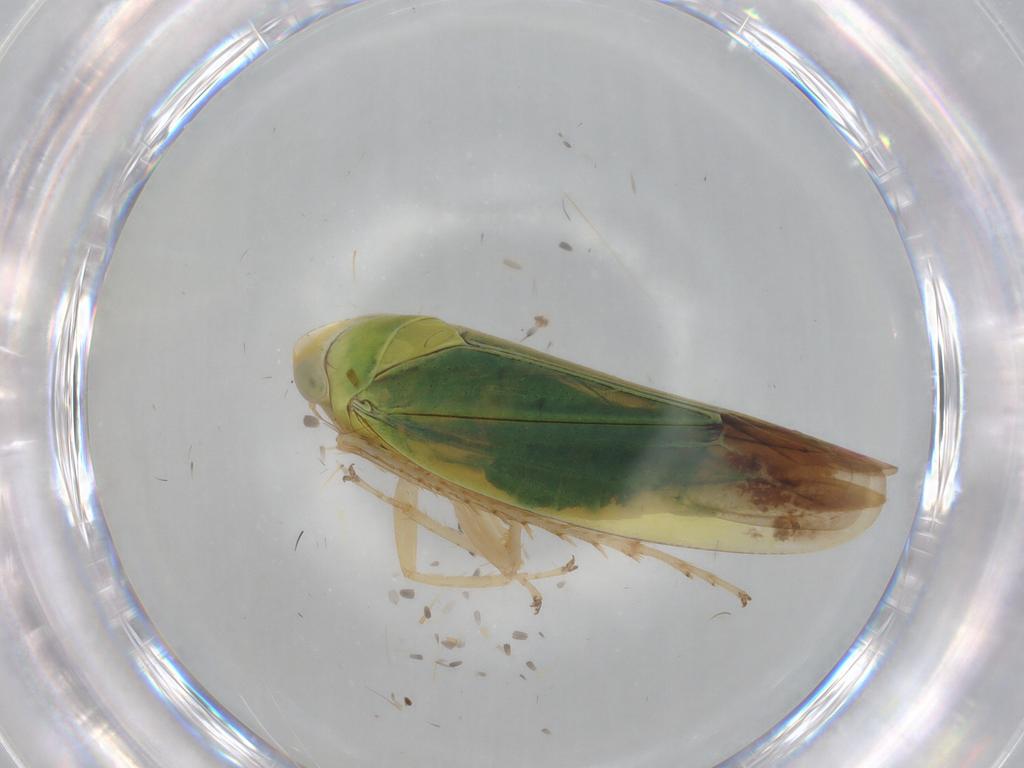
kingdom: Animalia
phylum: Arthropoda
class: Insecta
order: Hemiptera
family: Cicadellidae
